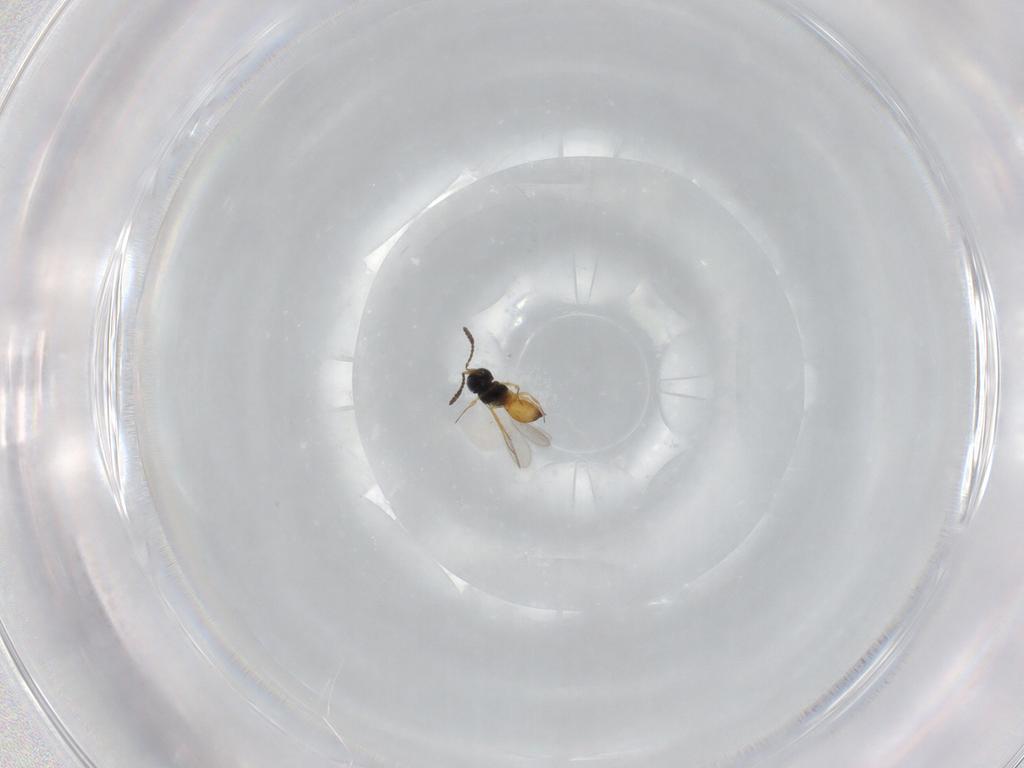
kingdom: Animalia
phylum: Arthropoda
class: Insecta
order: Hymenoptera
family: Scelionidae
